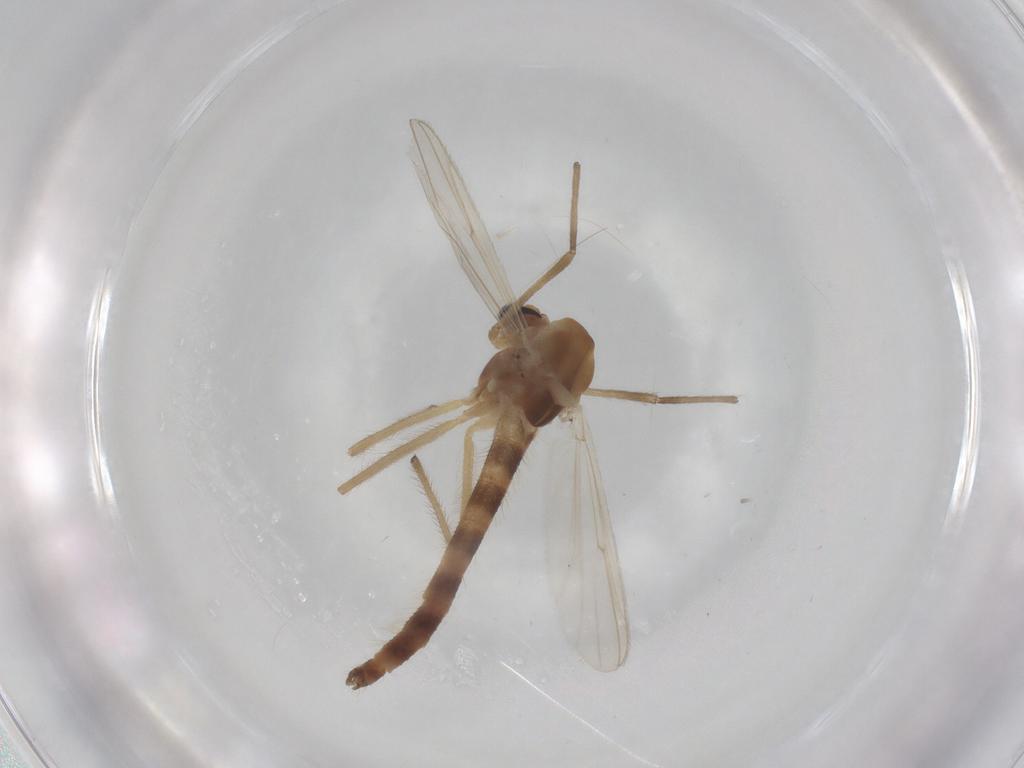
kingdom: Animalia
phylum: Arthropoda
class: Insecta
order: Diptera
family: Chironomidae
